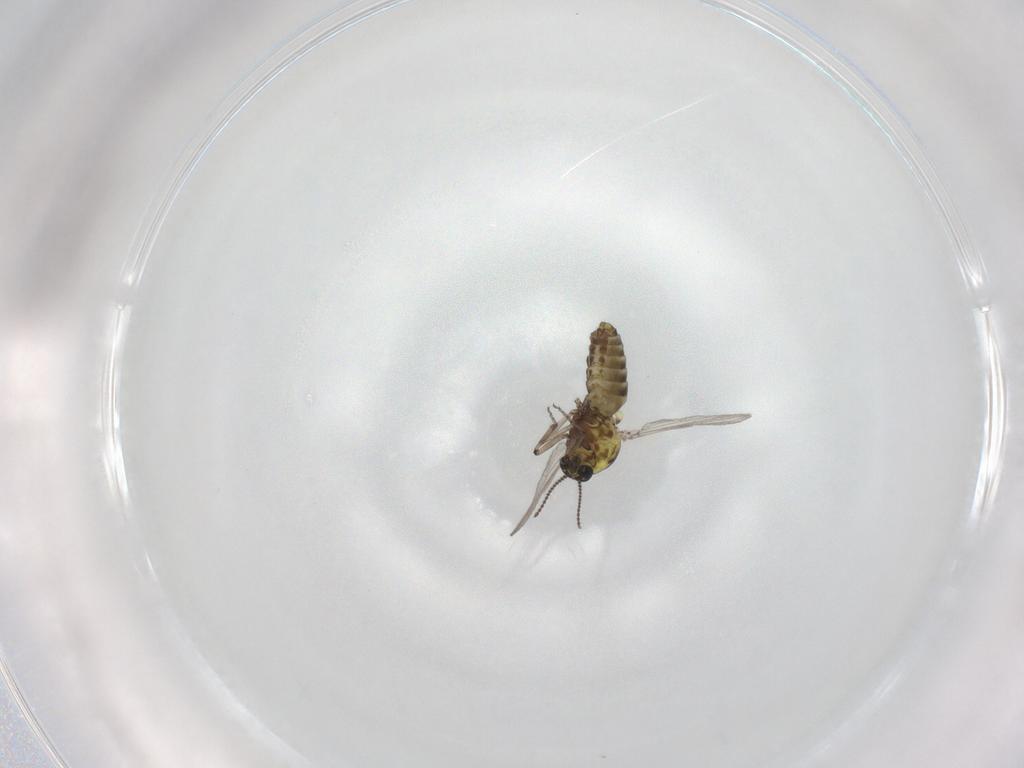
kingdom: Animalia
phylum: Arthropoda
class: Insecta
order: Diptera
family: Ceratopogonidae
